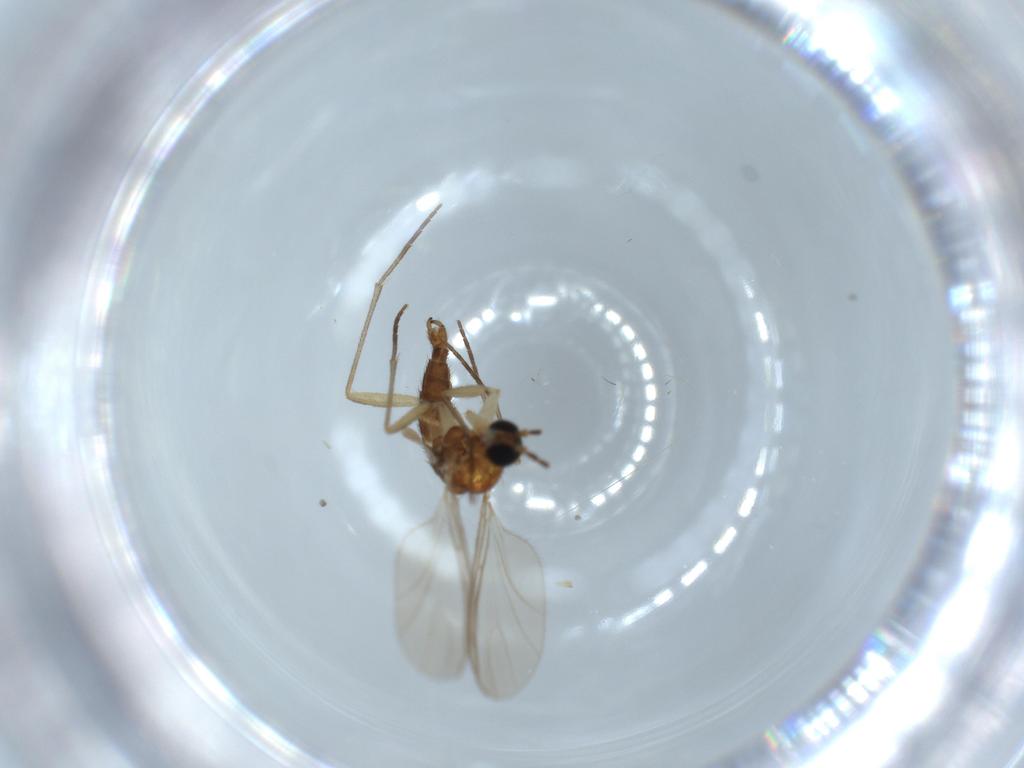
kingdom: Animalia
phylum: Arthropoda
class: Insecta
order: Diptera
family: Sciaridae
